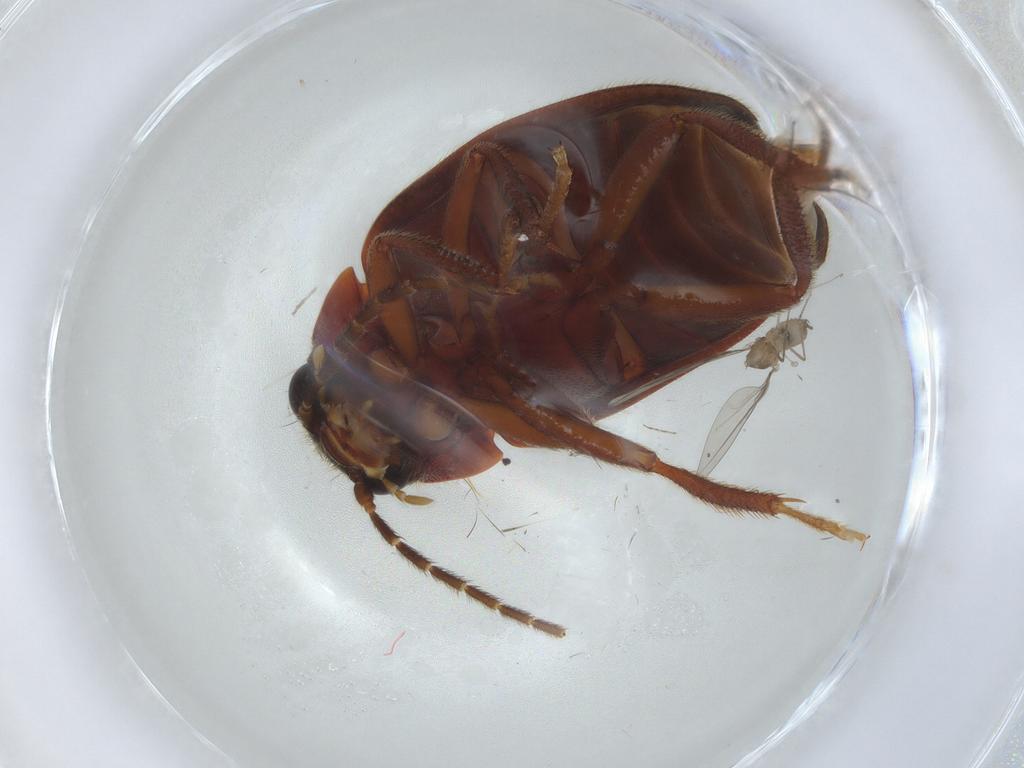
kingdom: Animalia
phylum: Arthropoda
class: Insecta
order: Diptera
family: Cecidomyiidae
